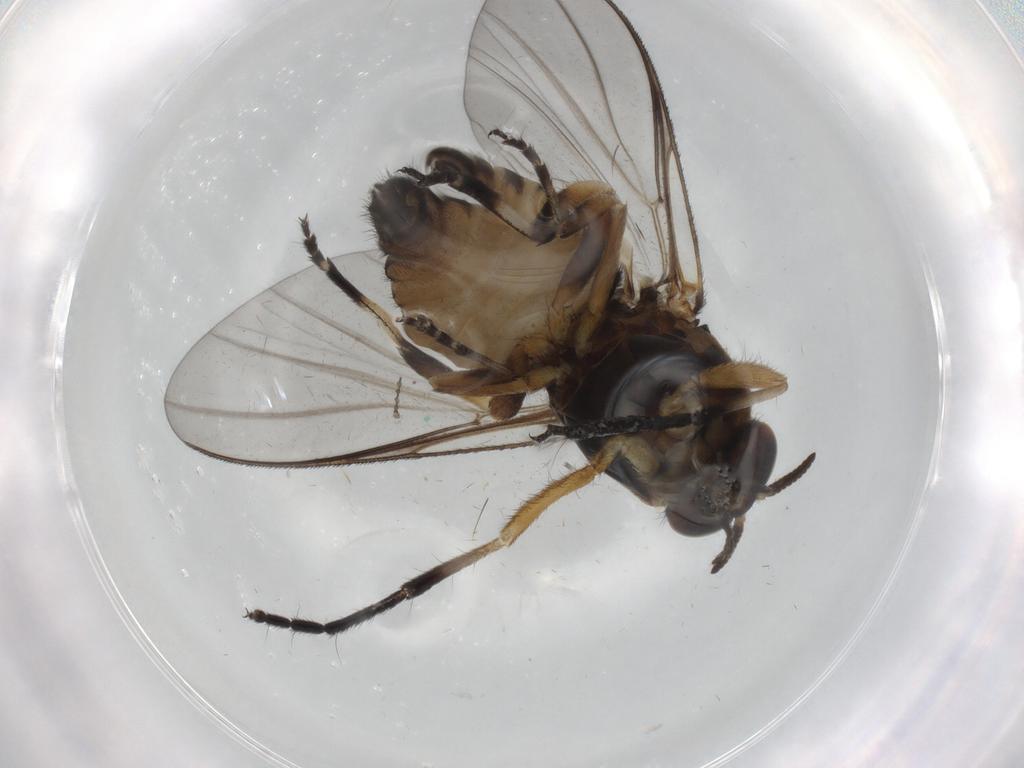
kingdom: Animalia
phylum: Arthropoda
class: Insecta
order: Diptera
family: Simuliidae
